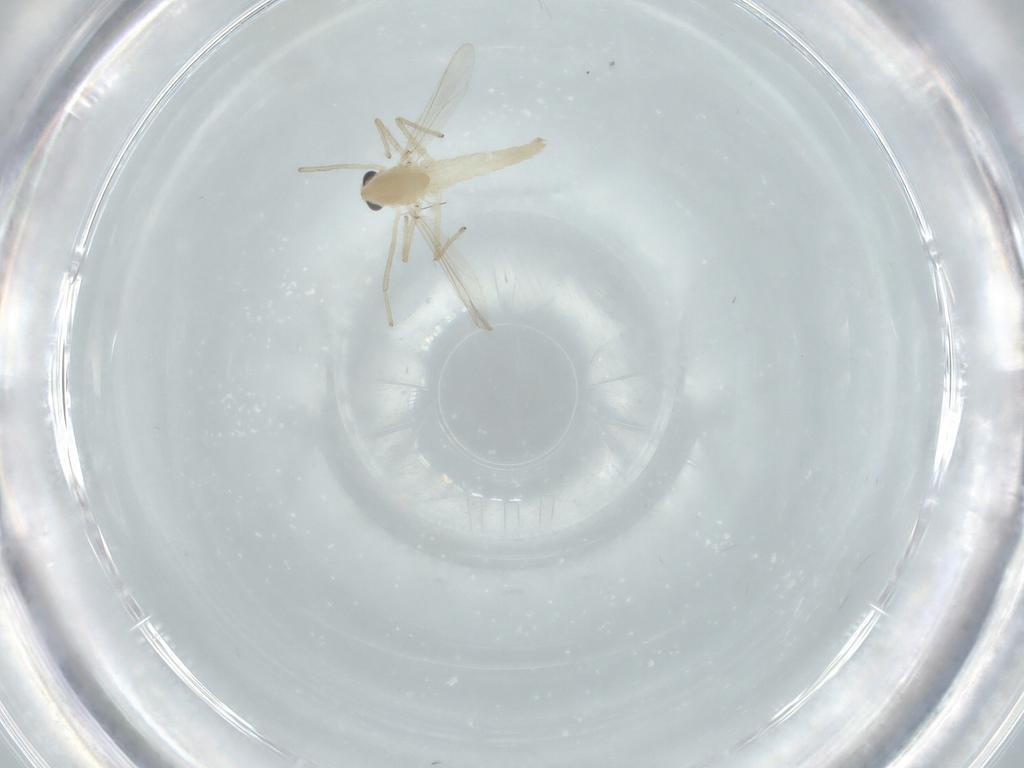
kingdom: Animalia
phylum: Arthropoda
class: Insecta
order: Diptera
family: Chironomidae
